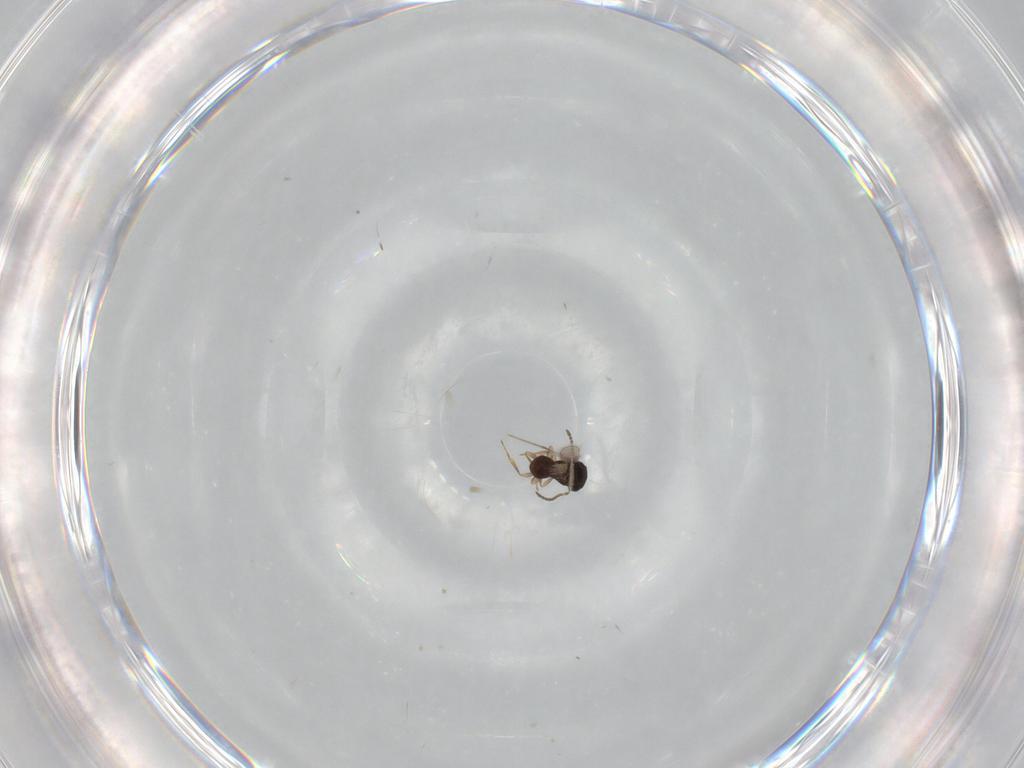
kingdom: Animalia
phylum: Arthropoda
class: Insecta
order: Hymenoptera
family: Scelionidae
